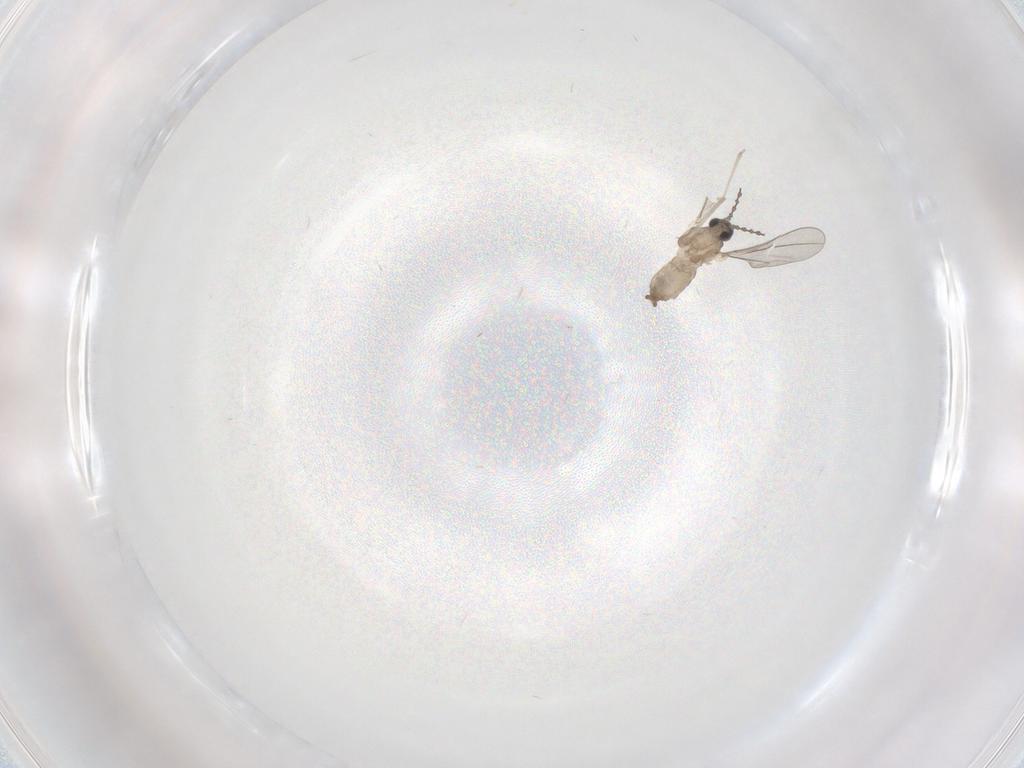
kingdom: Animalia
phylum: Arthropoda
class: Insecta
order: Diptera
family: Cecidomyiidae
